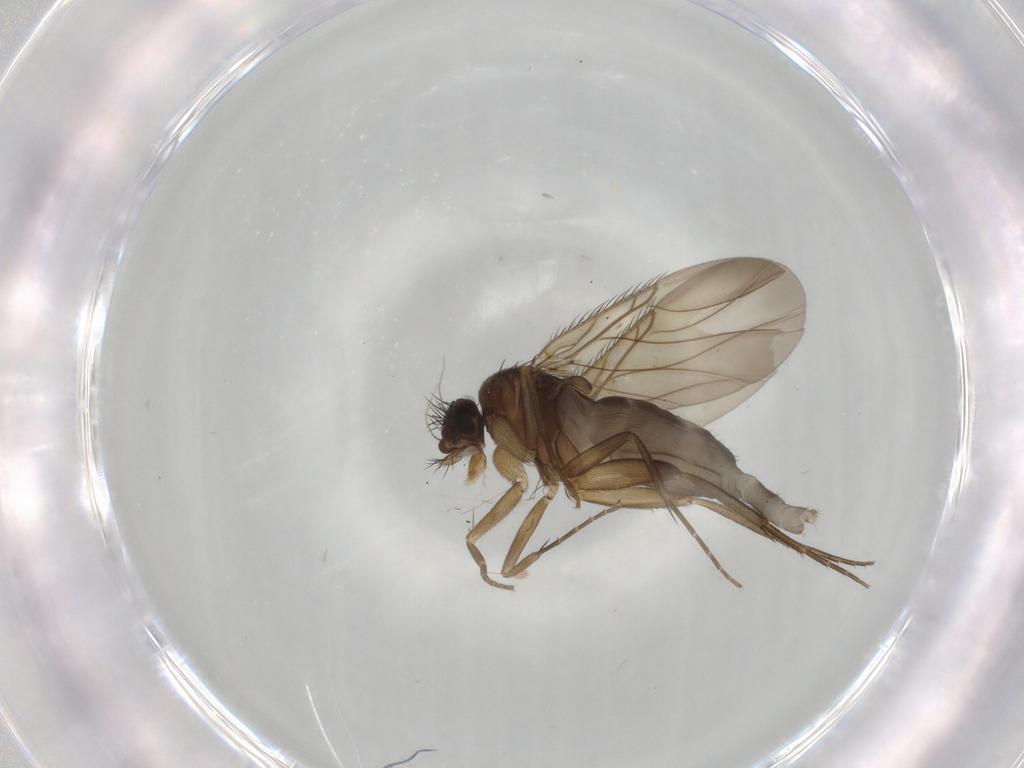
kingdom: Animalia
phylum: Arthropoda
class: Insecta
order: Diptera
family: Phoridae
